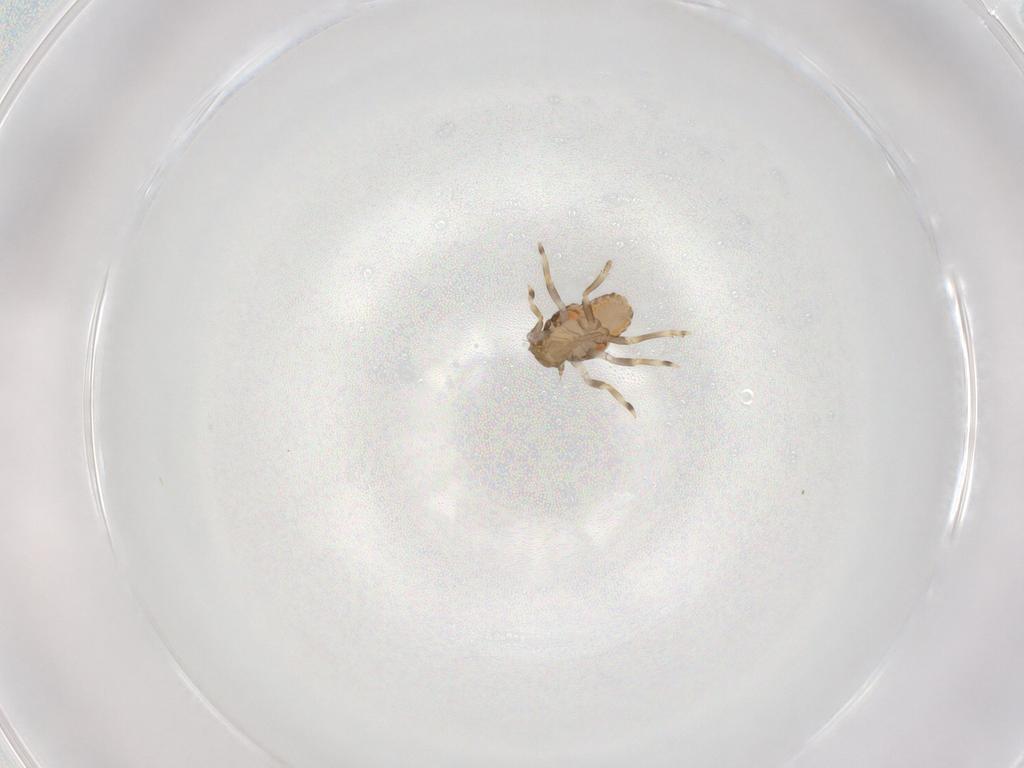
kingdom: Animalia
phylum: Arthropoda
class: Insecta
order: Hemiptera
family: Flatidae
